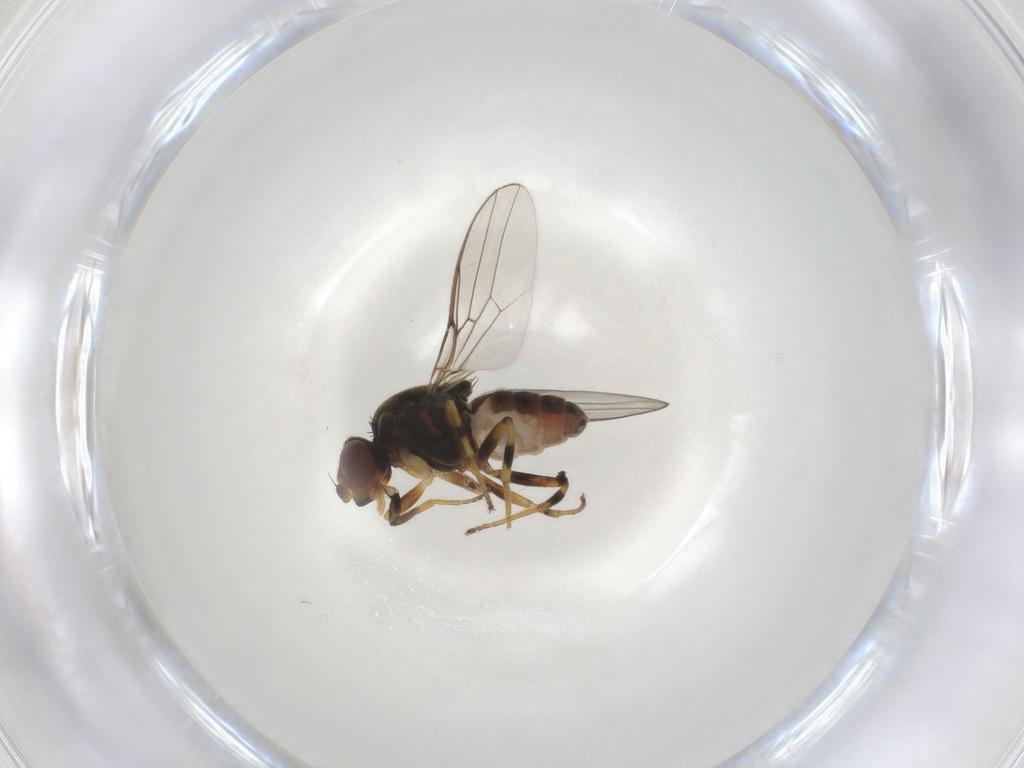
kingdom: Animalia
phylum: Arthropoda
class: Insecta
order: Diptera
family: Chloropidae
